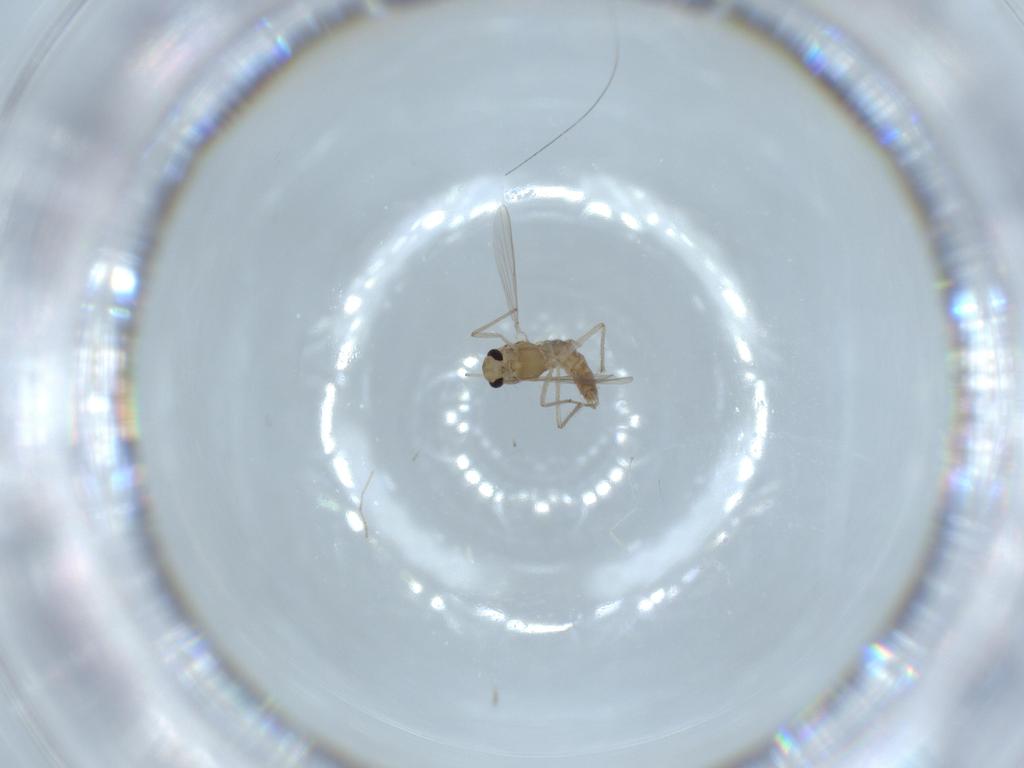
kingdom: Animalia
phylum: Arthropoda
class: Insecta
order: Diptera
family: Chironomidae
